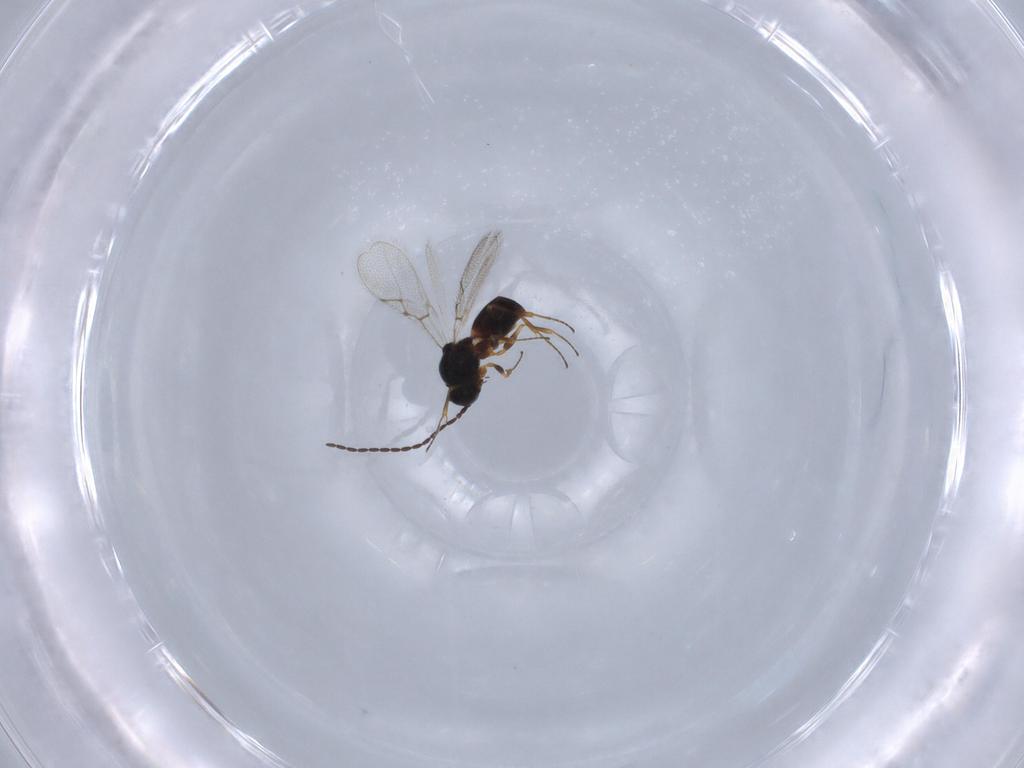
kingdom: Animalia
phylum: Arthropoda
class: Insecta
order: Hymenoptera
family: Figitidae
